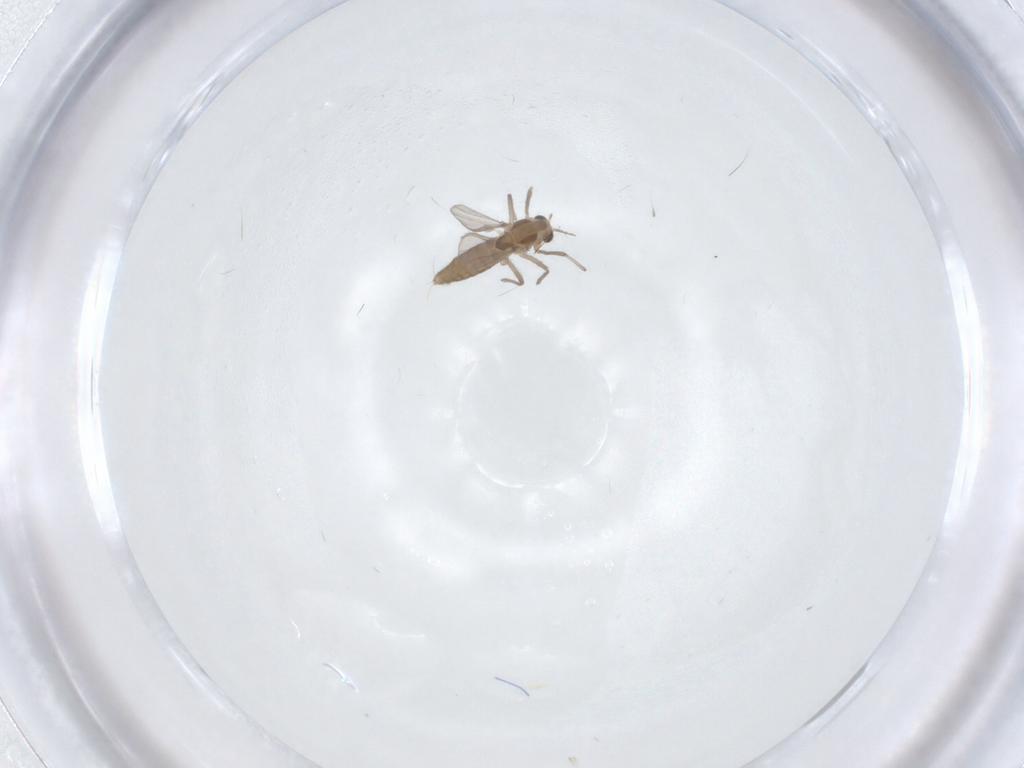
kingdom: Animalia
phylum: Arthropoda
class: Insecta
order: Diptera
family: Chironomidae
